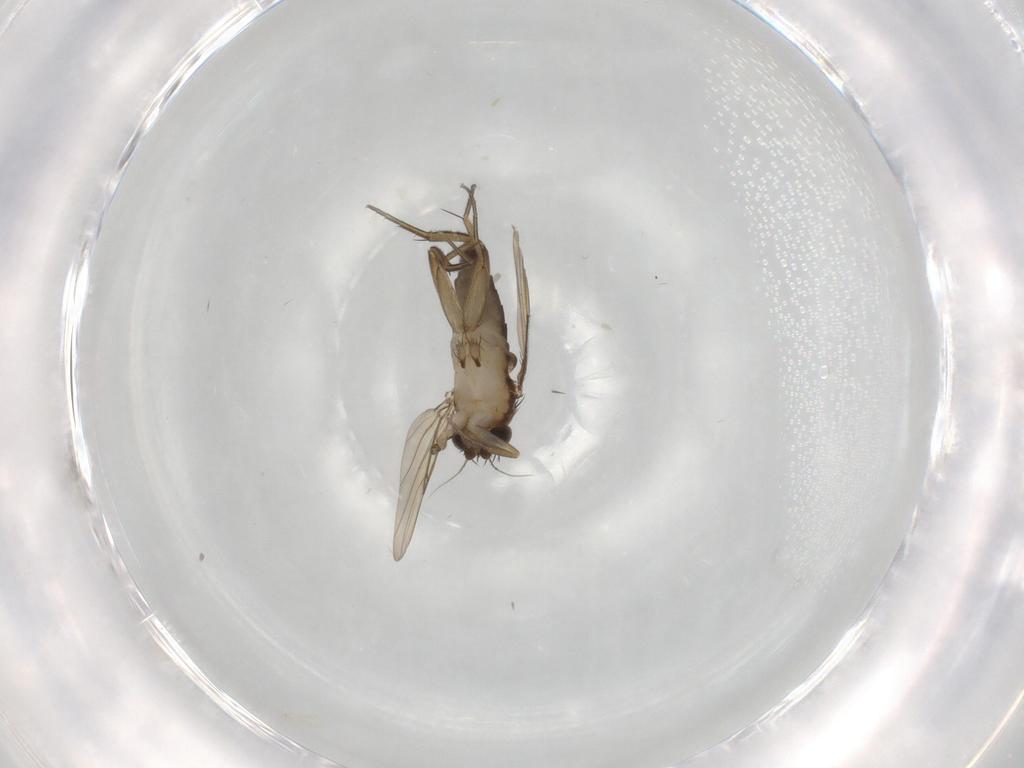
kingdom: Animalia
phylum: Arthropoda
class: Insecta
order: Diptera
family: Phoridae
